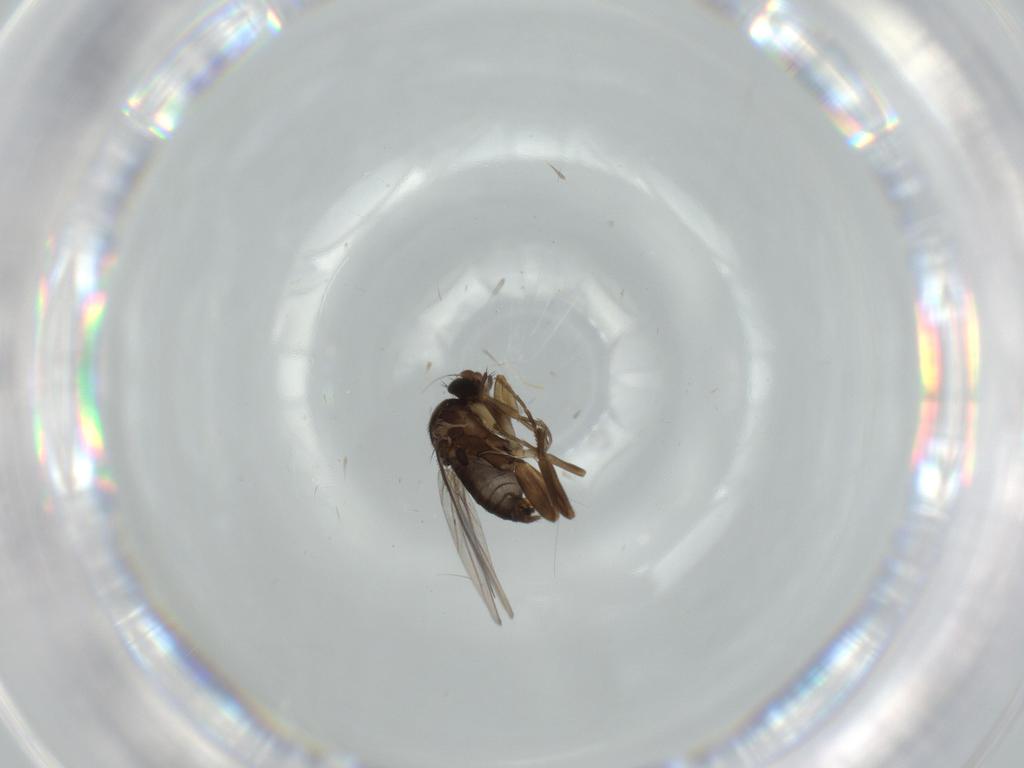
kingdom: Animalia
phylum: Arthropoda
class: Insecta
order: Diptera
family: Phoridae
